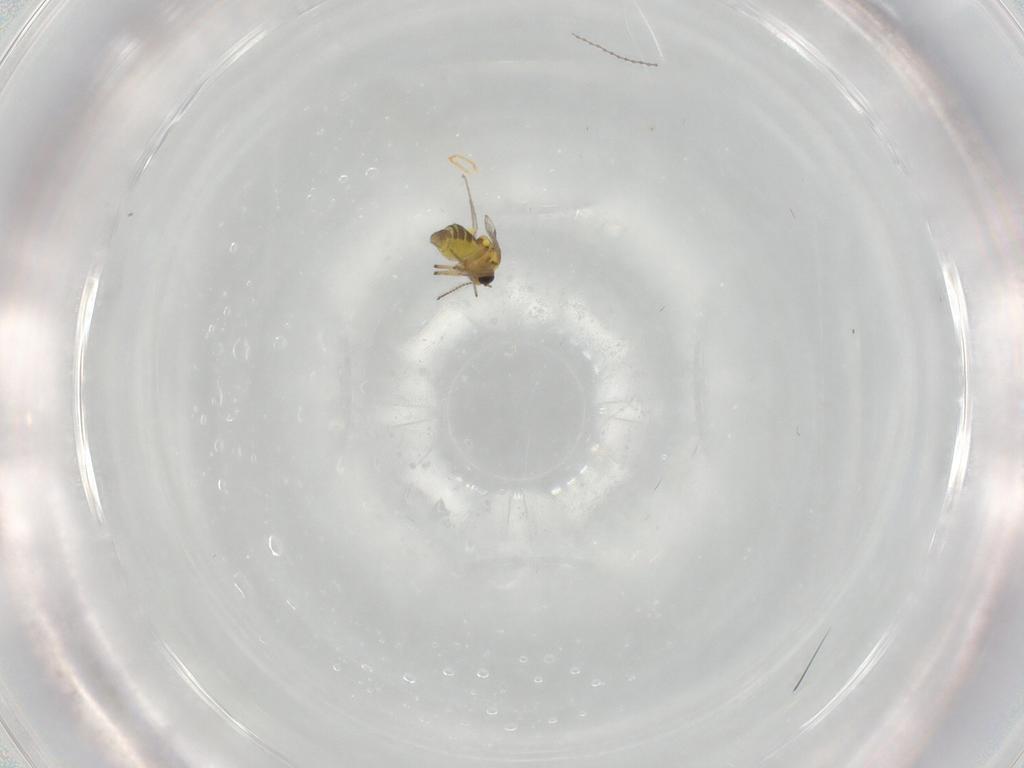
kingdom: Animalia
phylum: Arthropoda
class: Insecta
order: Diptera
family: Ceratopogonidae
